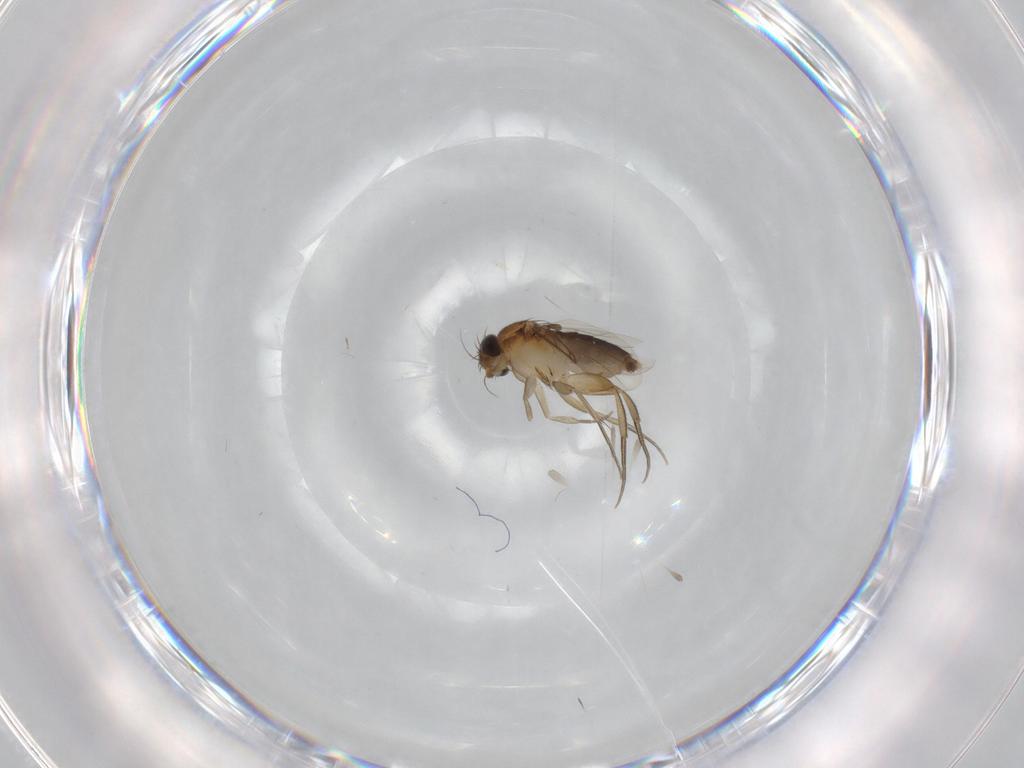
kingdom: Animalia
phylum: Arthropoda
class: Insecta
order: Diptera
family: Phoridae
